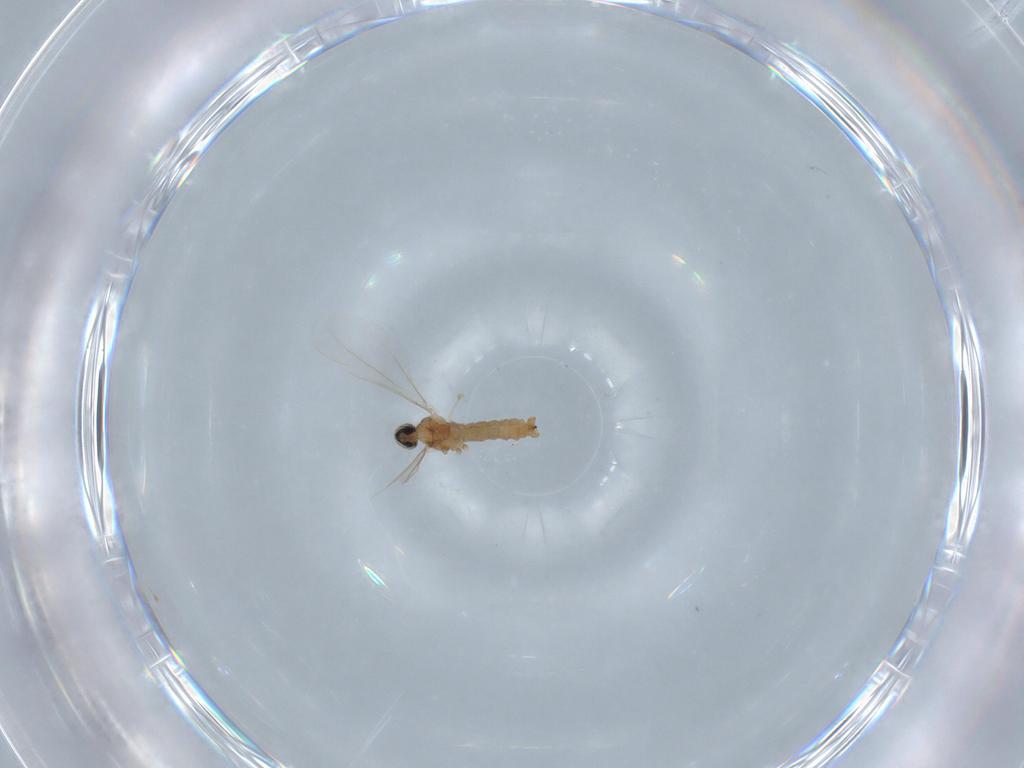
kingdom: Animalia
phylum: Arthropoda
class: Insecta
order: Diptera
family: Cecidomyiidae
